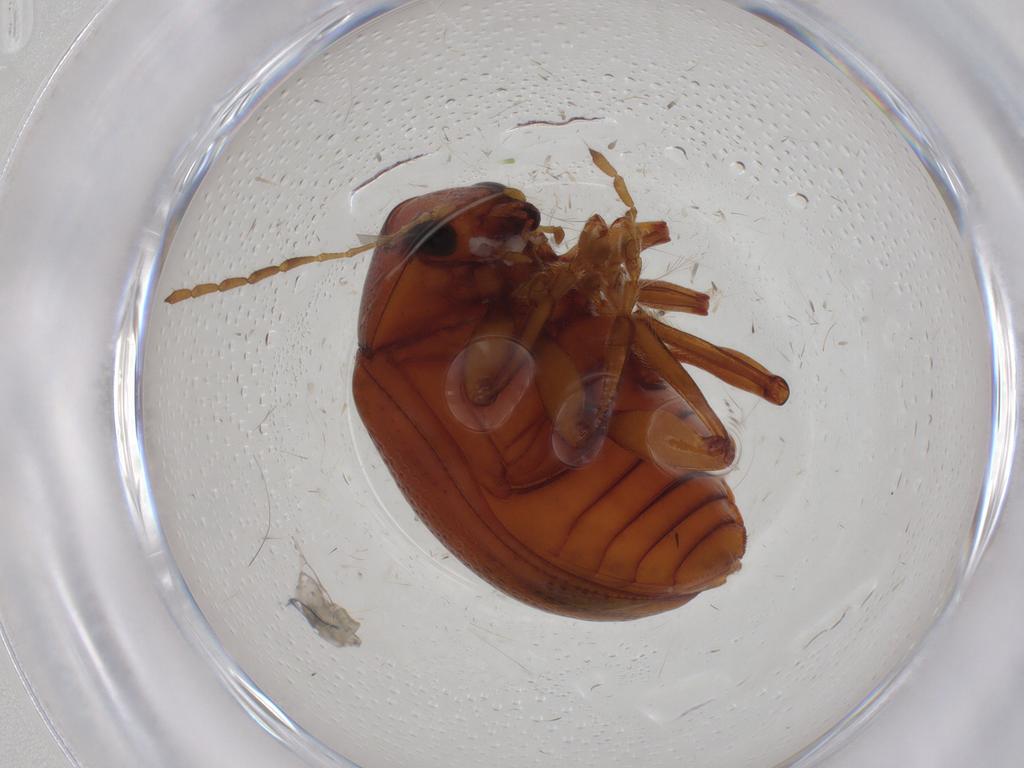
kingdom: Animalia
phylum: Arthropoda
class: Insecta
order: Coleoptera
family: Chrysomelidae
